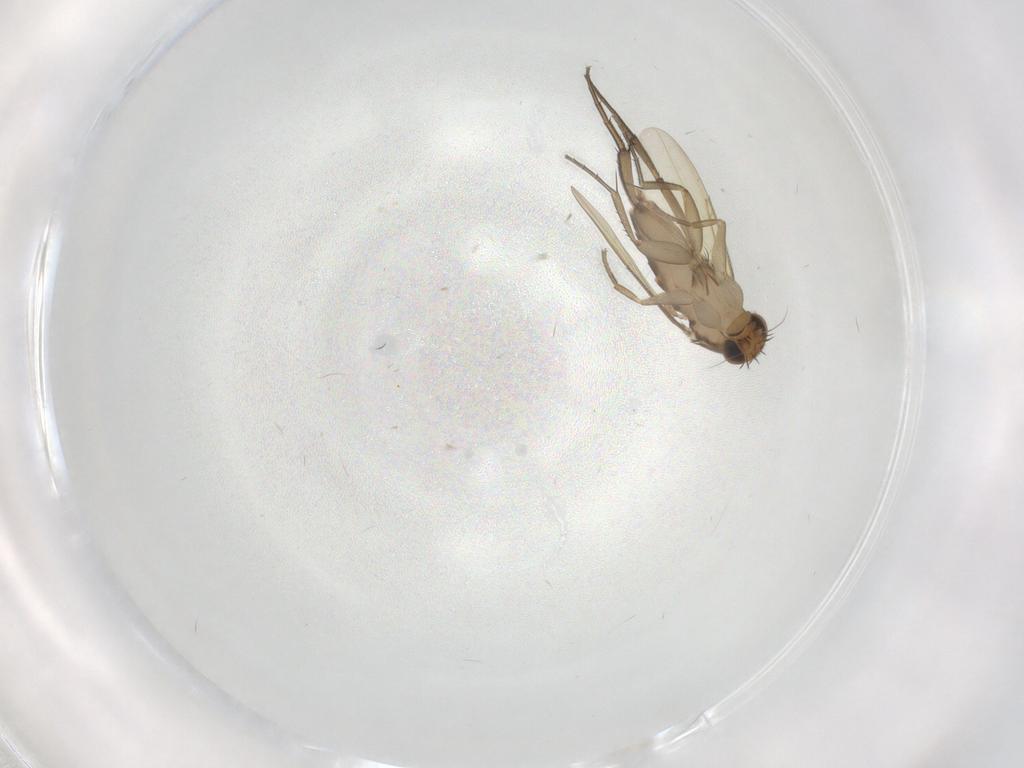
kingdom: Animalia
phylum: Arthropoda
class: Insecta
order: Diptera
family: Phoridae
